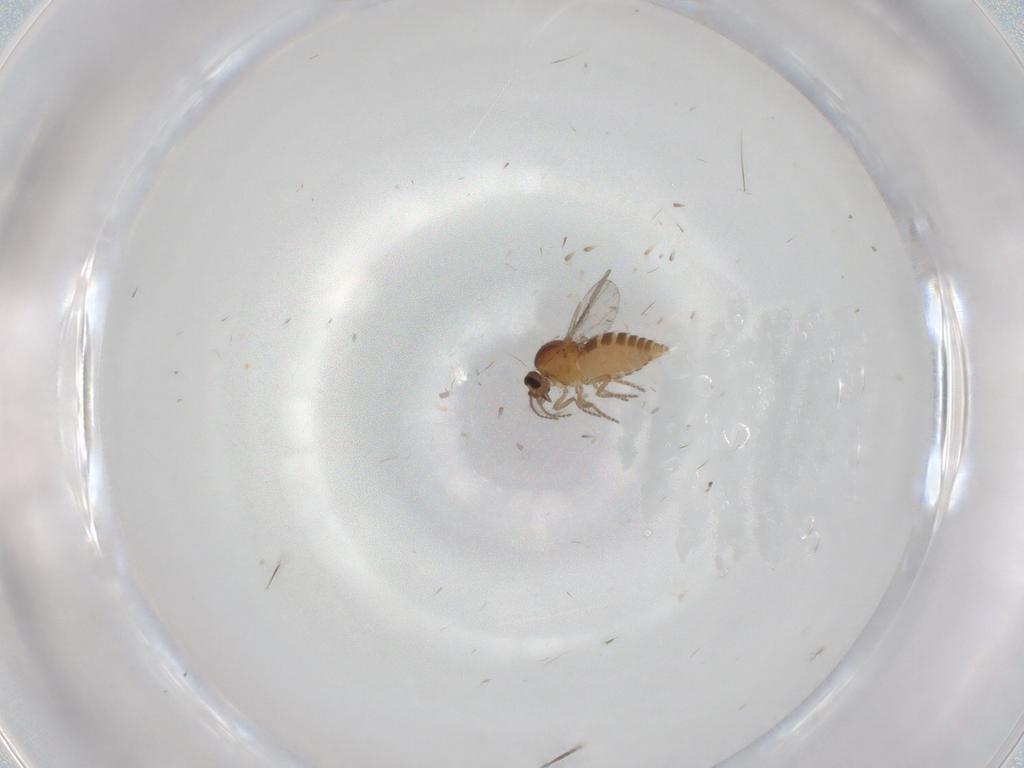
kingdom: Animalia
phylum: Arthropoda
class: Insecta
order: Diptera
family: Ceratopogonidae
